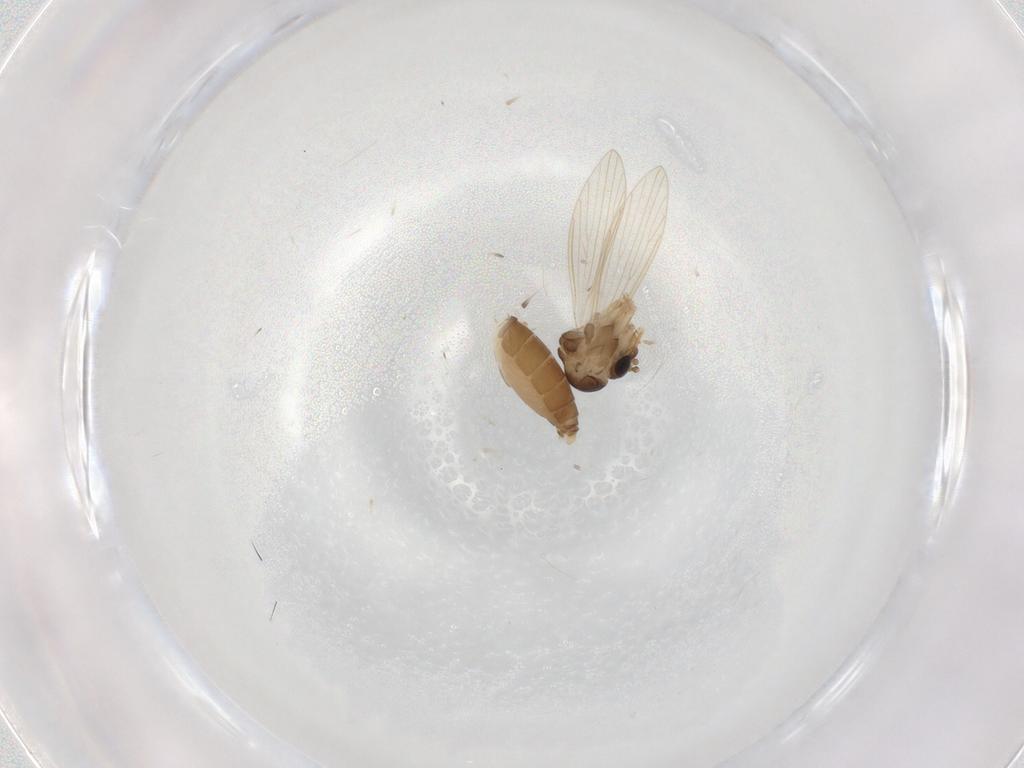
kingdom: Animalia
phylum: Arthropoda
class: Insecta
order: Diptera
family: Psychodidae
